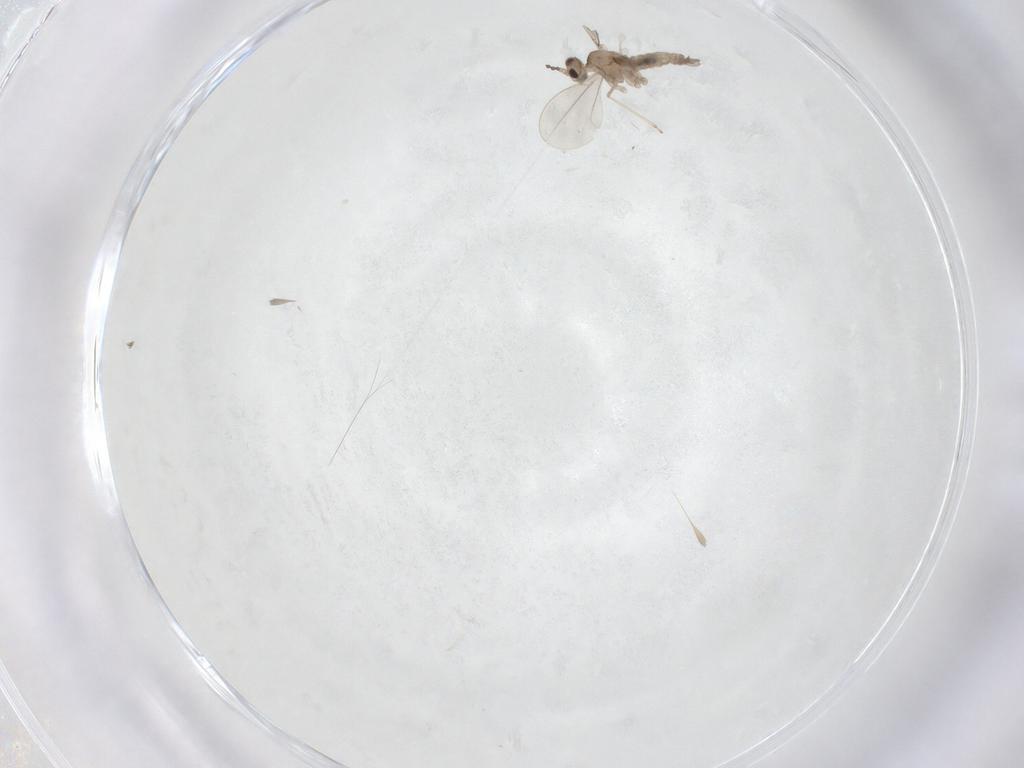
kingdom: Animalia
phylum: Arthropoda
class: Insecta
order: Diptera
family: Cecidomyiidae
